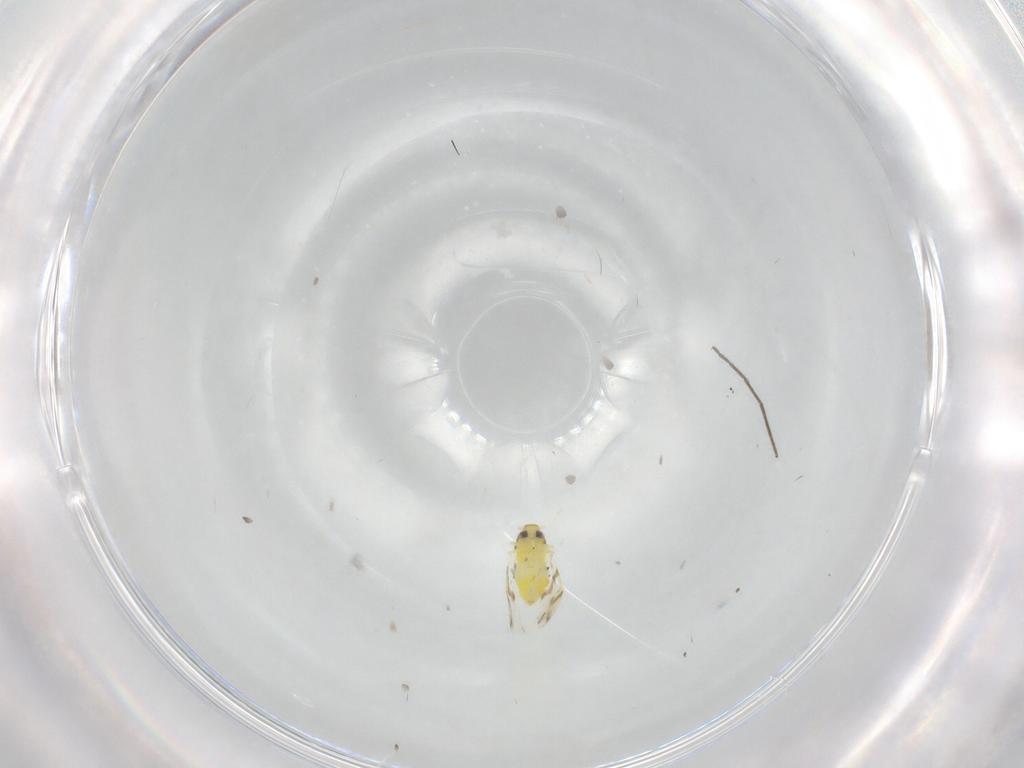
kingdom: Animalia
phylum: Arthropoda
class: Insecta
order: Hemiptera
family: Aleyrodidae
